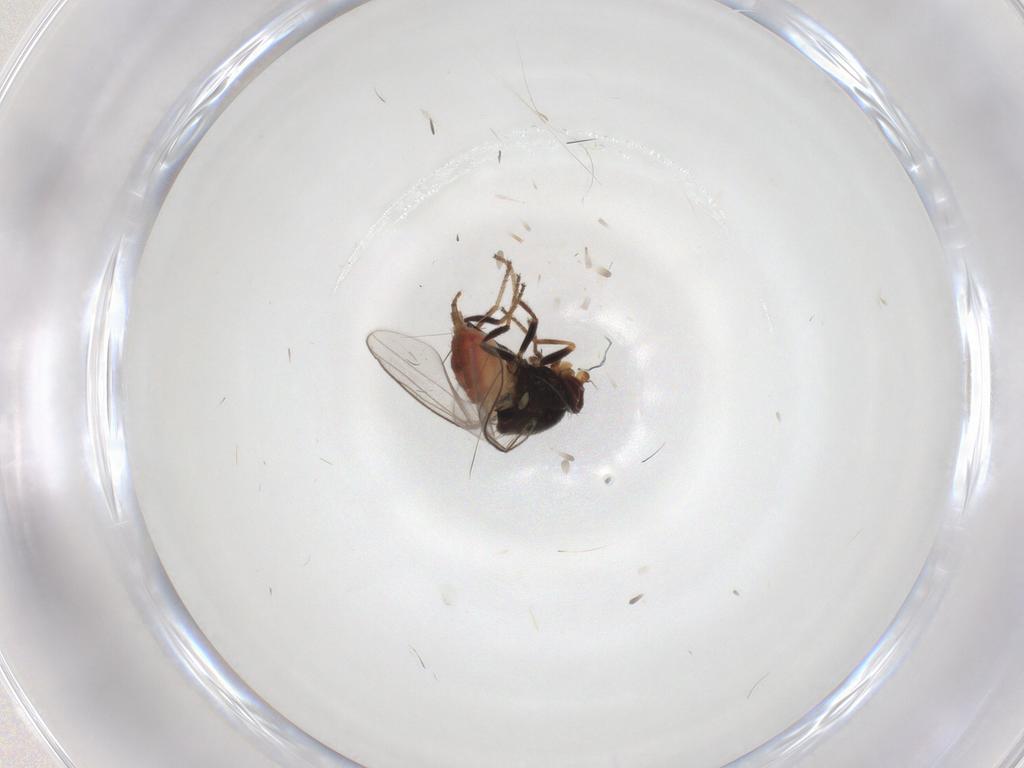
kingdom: Animalia
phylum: Arthropoda
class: Insecta
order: Diptera
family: Chloropidae
